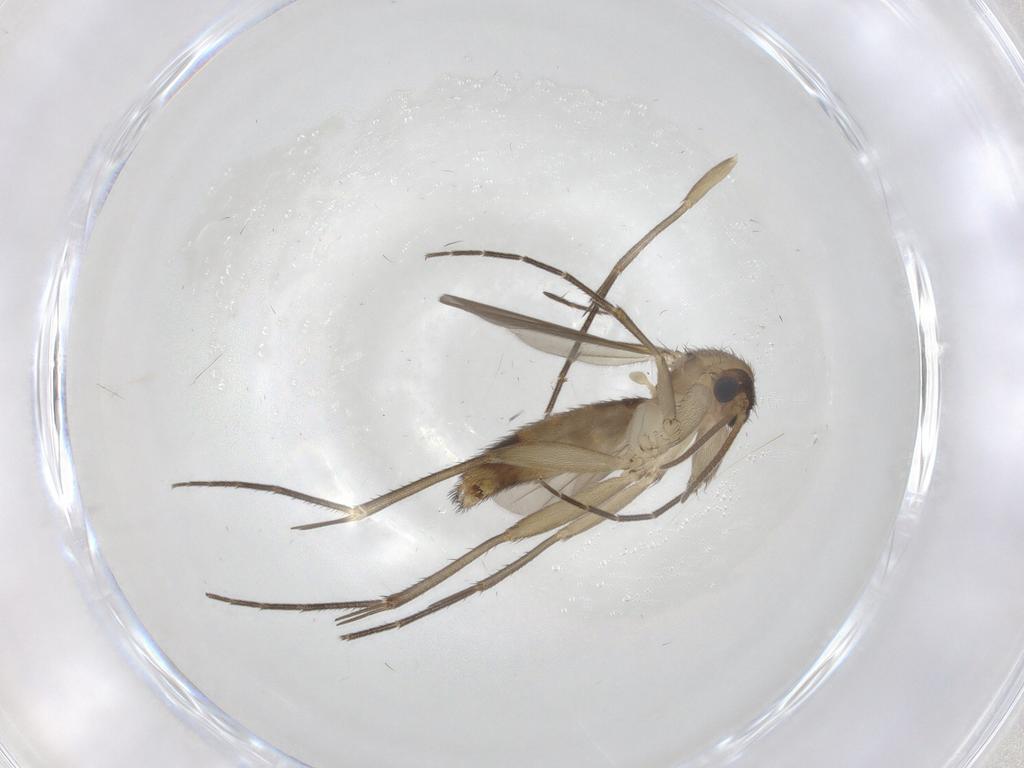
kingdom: Animalia
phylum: Arthropoda
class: Insecta
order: Diptera
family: Mycetophilidae
